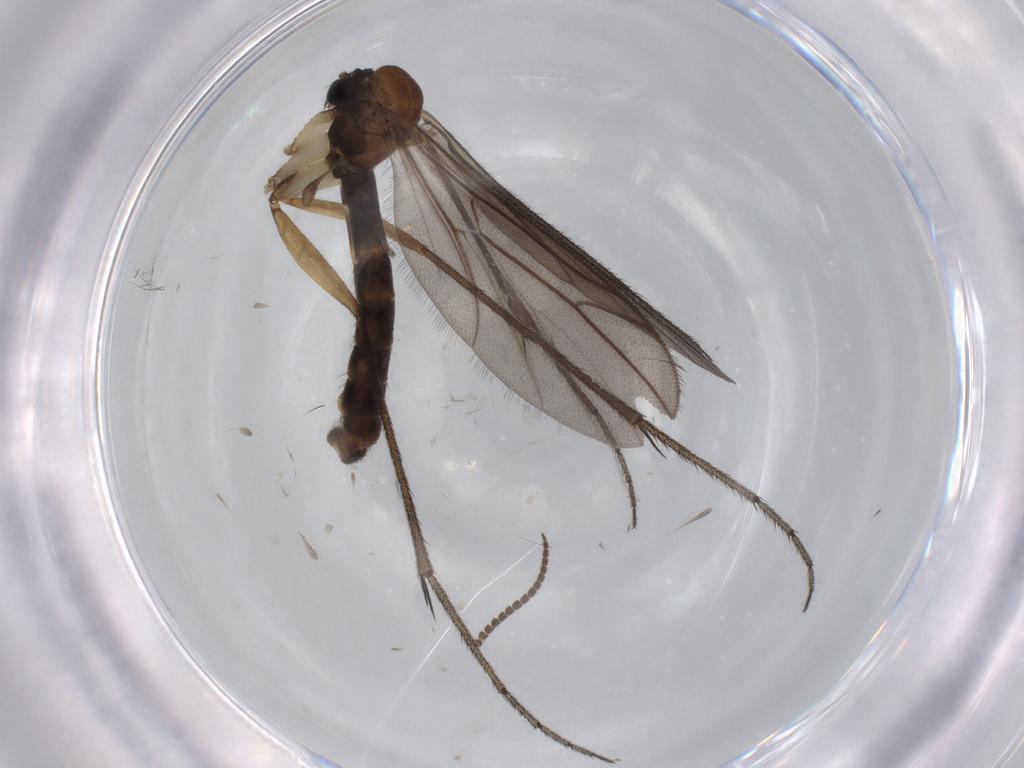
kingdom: Animalia
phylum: Arthropoda
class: Insecta
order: Diptera
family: Ditomyiidae
